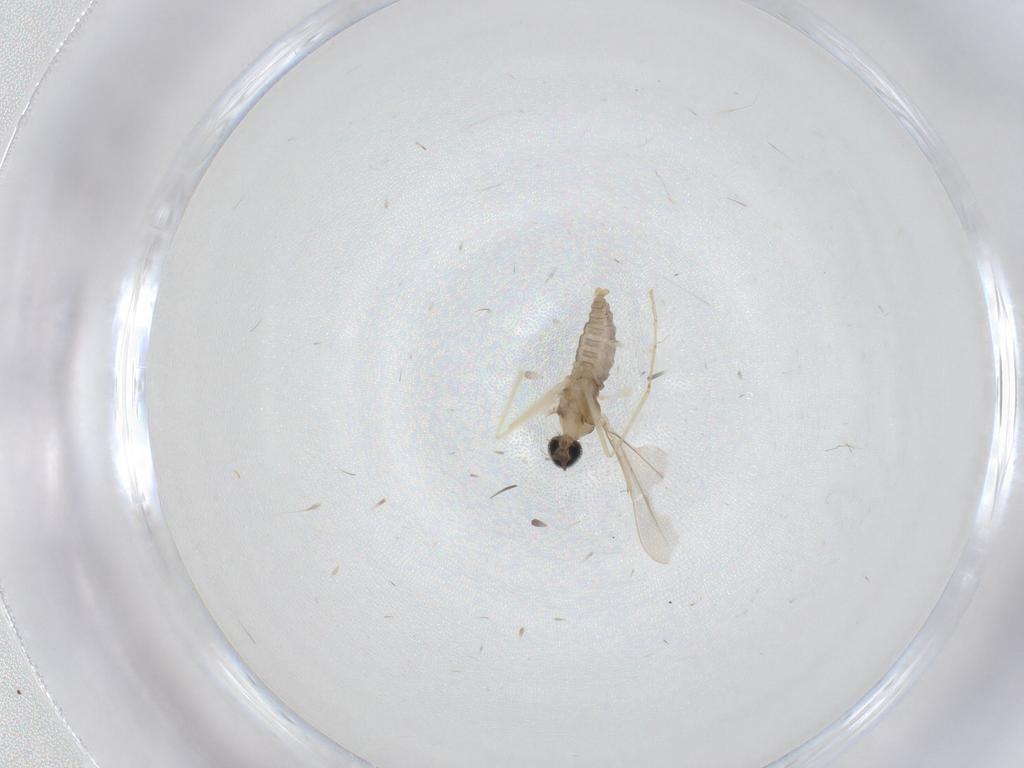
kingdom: Animalia
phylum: Arthropoda
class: Insecta
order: Diptera
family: Cecidomyiidae
